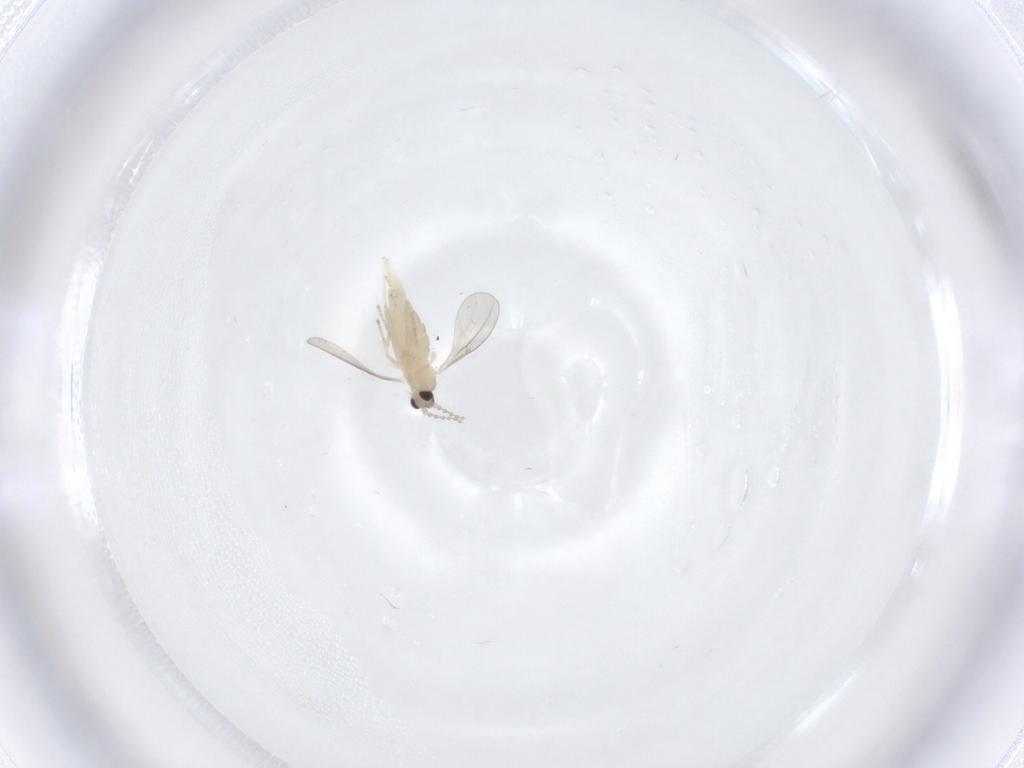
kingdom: Animalia
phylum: Arthropoda
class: Insecta
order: Diptera
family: Cecidomyiidae
